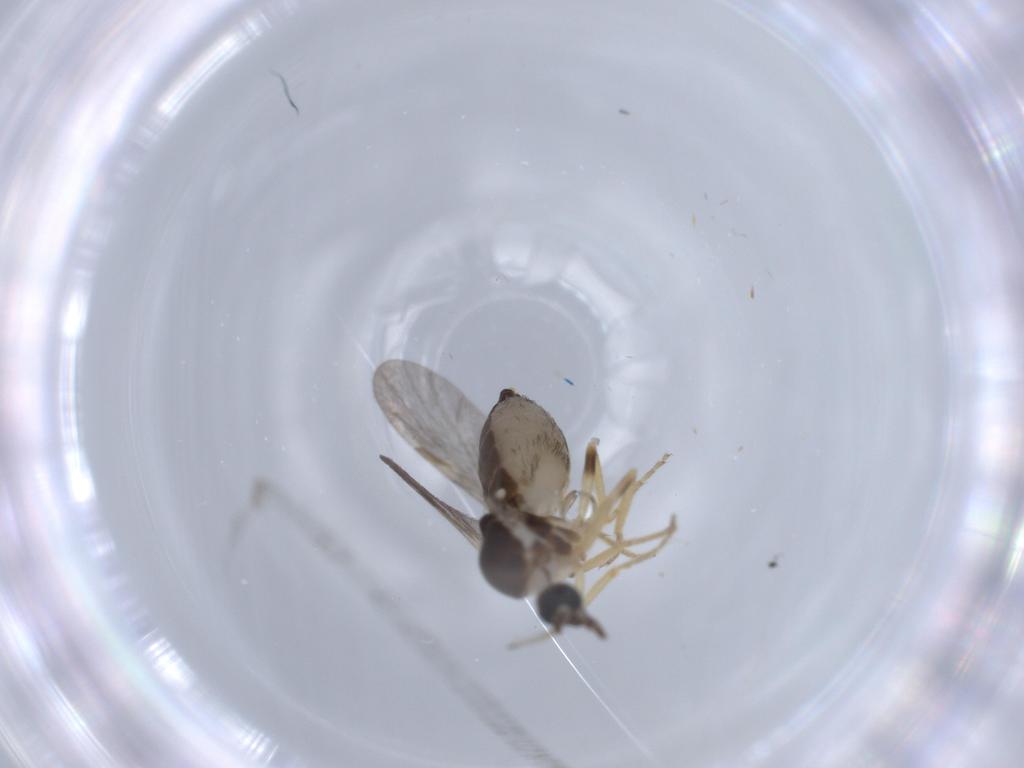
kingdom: Animalia
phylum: Arthropoda
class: Insecta
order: Diptera
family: Ceratopogonidae
